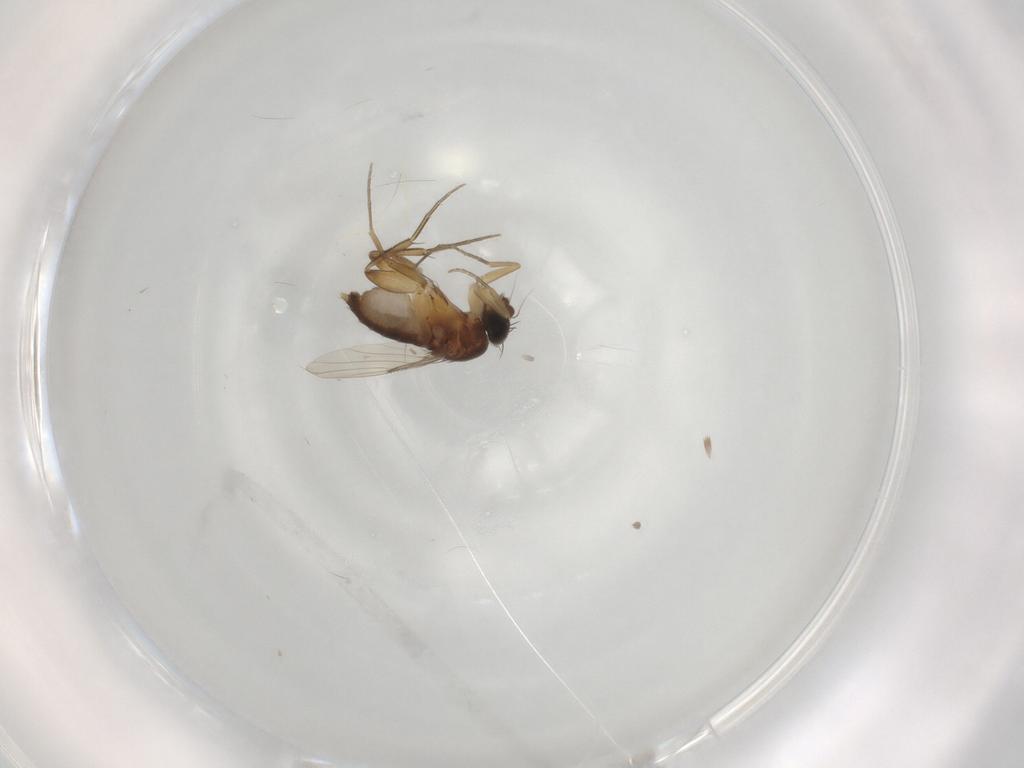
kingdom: Animalia
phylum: Arthropoda
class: Insecta
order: Diptera
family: Phoridae
